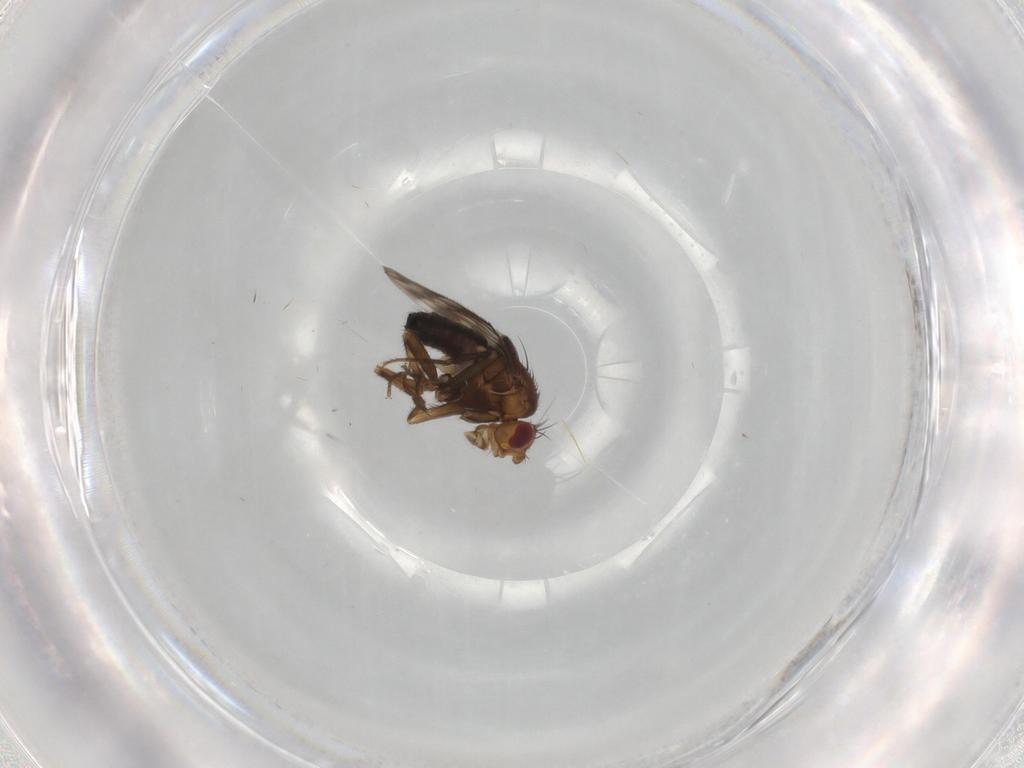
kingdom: Animalia
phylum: Arthropoda
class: Insecta
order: Diptera
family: Sphaeroceridae
